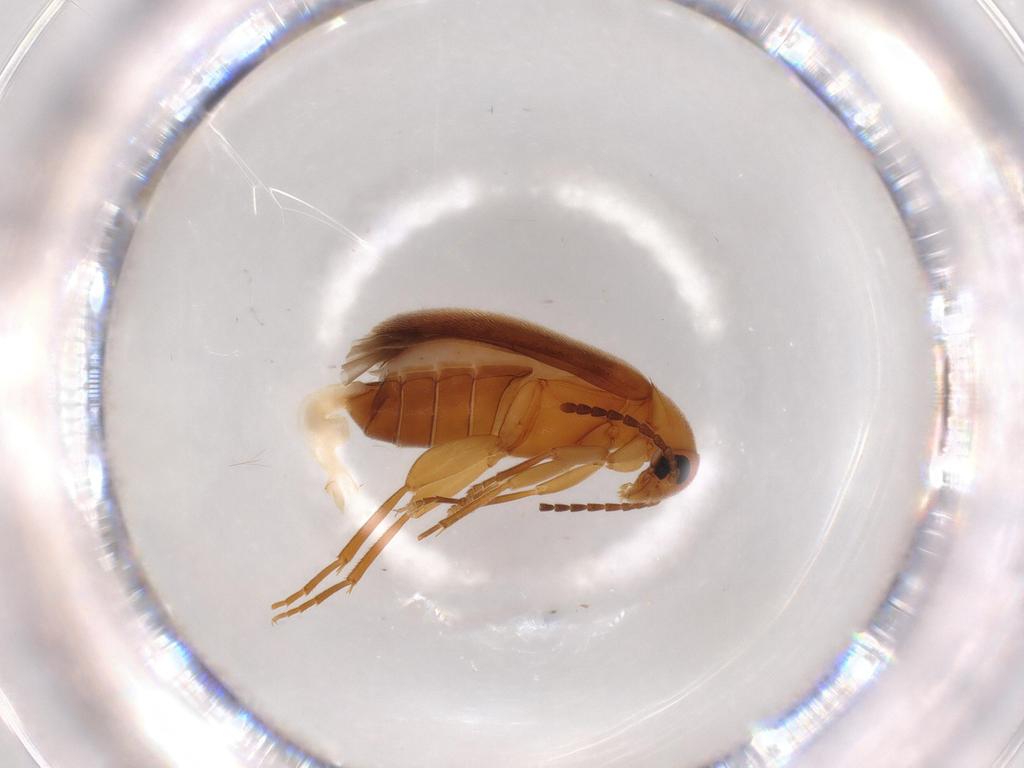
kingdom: Animalia
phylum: Arthropoda
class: Insecta
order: Coleoptera
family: Scraptiidae
